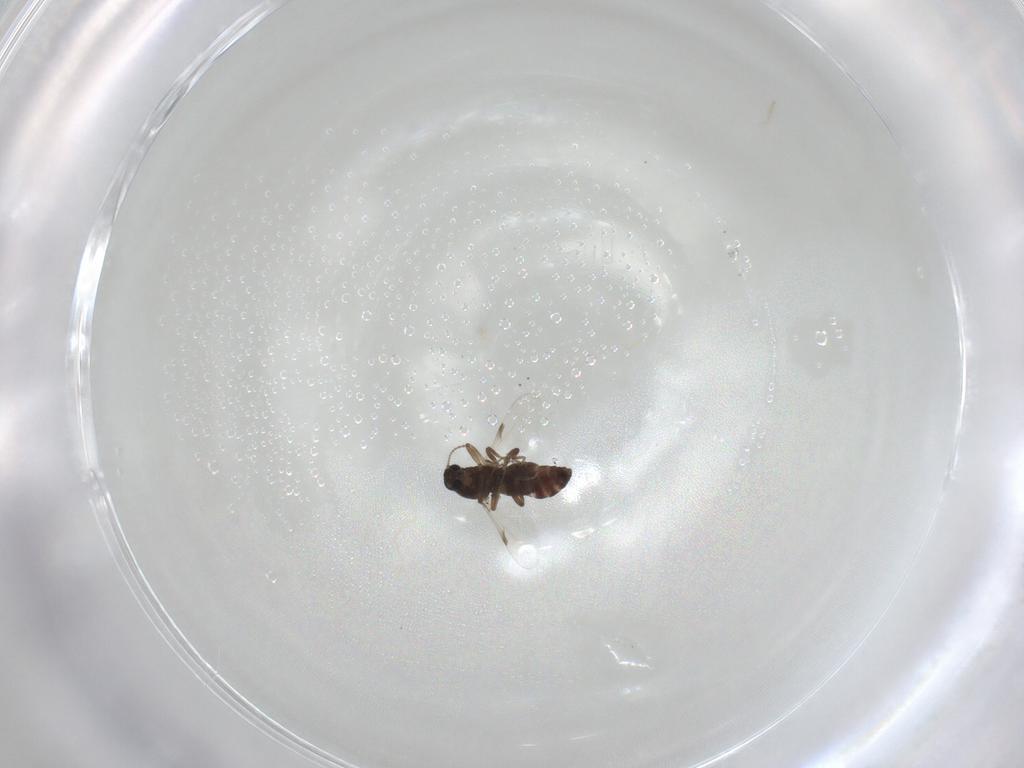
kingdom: Animalia
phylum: Arthropoda
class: Insecta
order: Diptera
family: Ceratopogonidae
